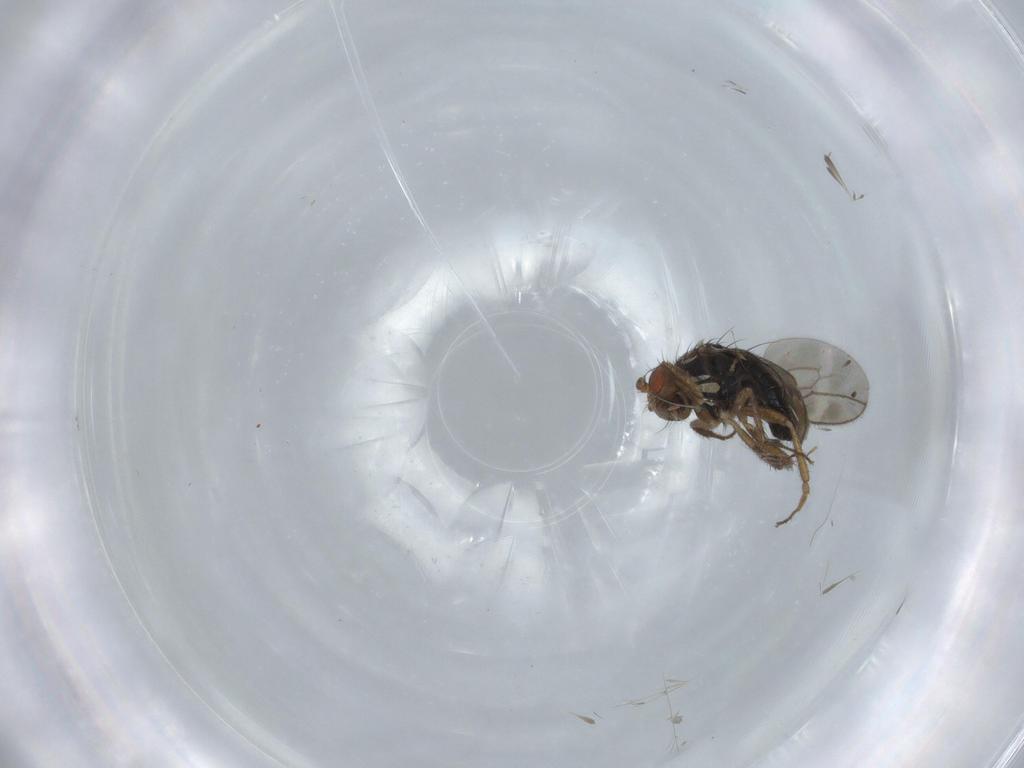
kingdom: Animalia
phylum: Arthropoda
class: Insecta
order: Diptera
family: Sphaeroceridae
